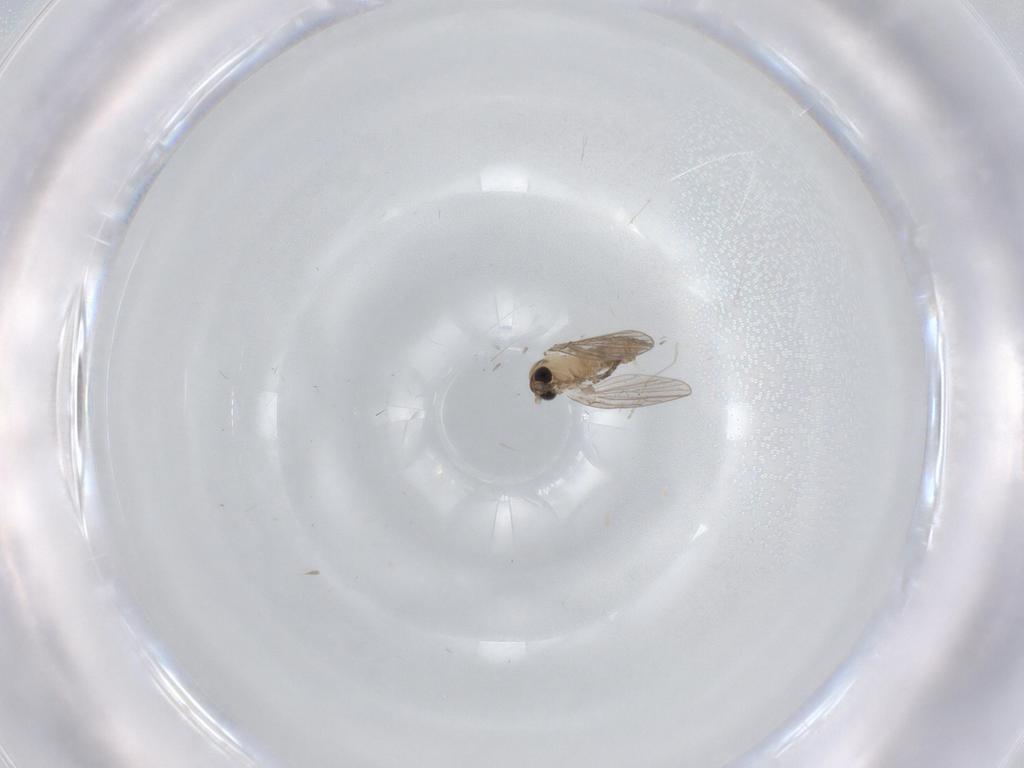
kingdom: Animalia
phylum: Arthropoda
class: Insecta
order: Diptera
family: Psychodidae
